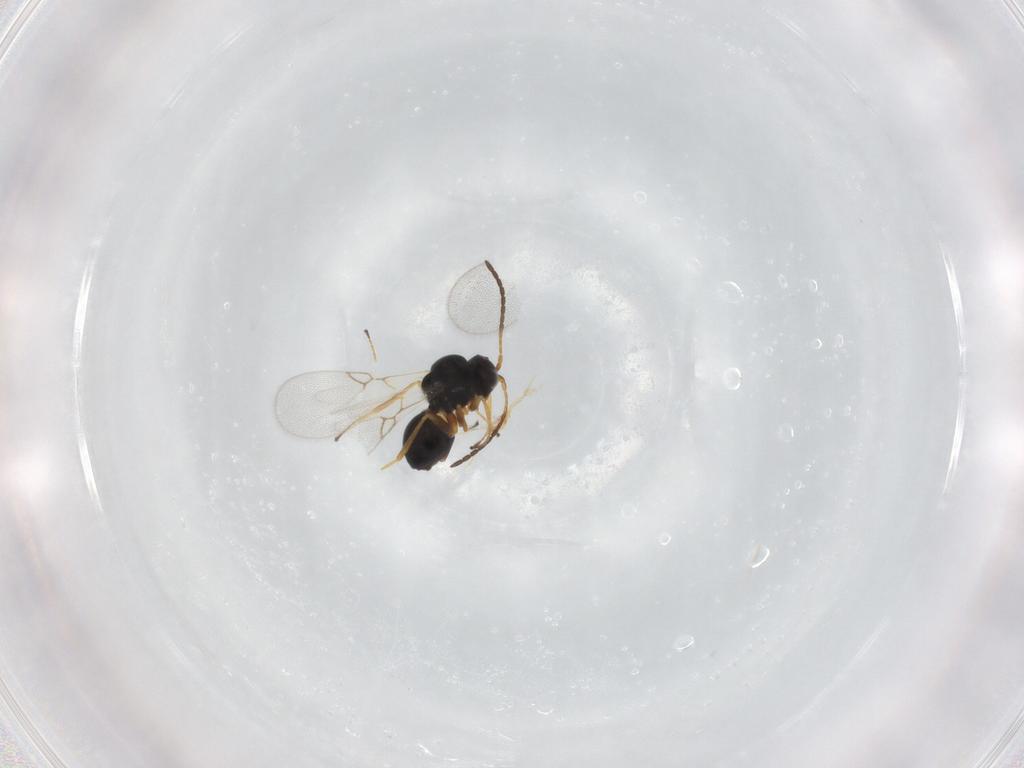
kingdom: Animalia
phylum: Arthropoda
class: Insecta
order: Hymenoptera
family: Figitidae
